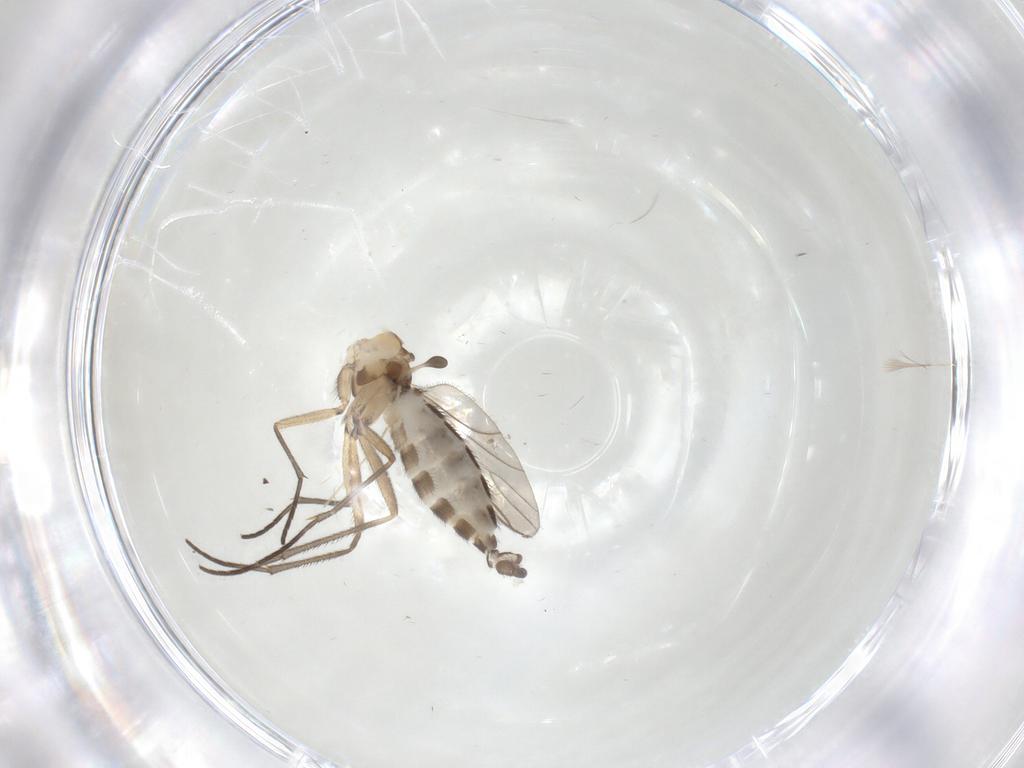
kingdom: Animalia
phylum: Arthropoda
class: Insecta
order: Diptera
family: Sciaridae
